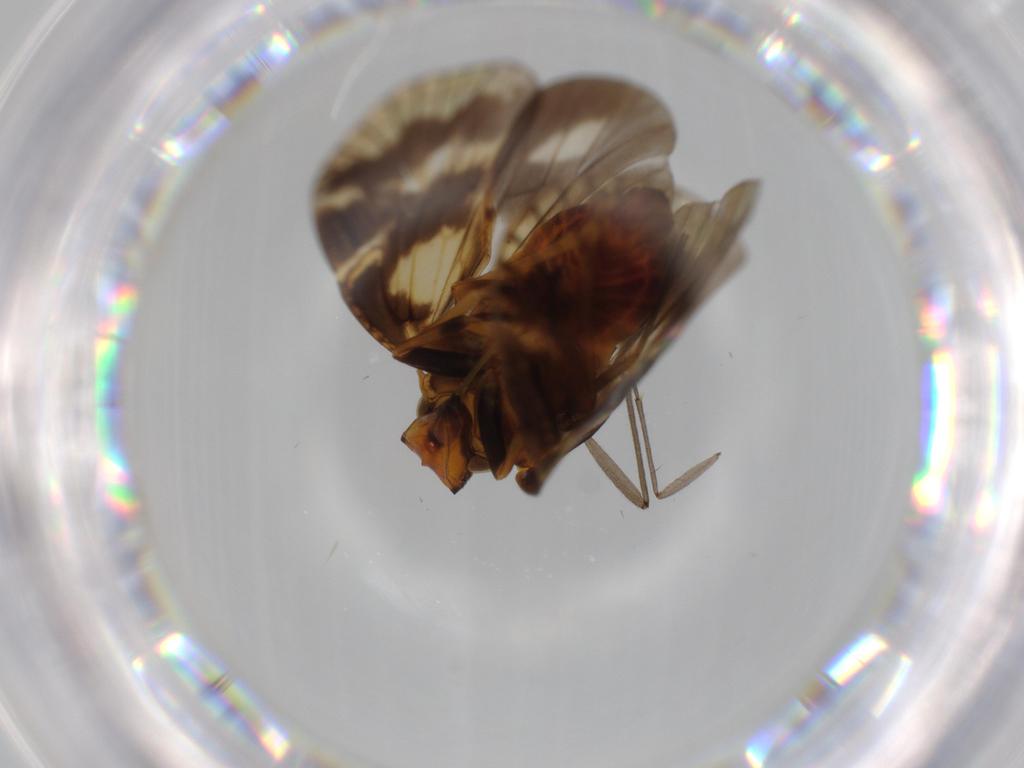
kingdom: Animalia
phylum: Arthropoda
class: Insecta
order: Hemiptera
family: Cixiidae
